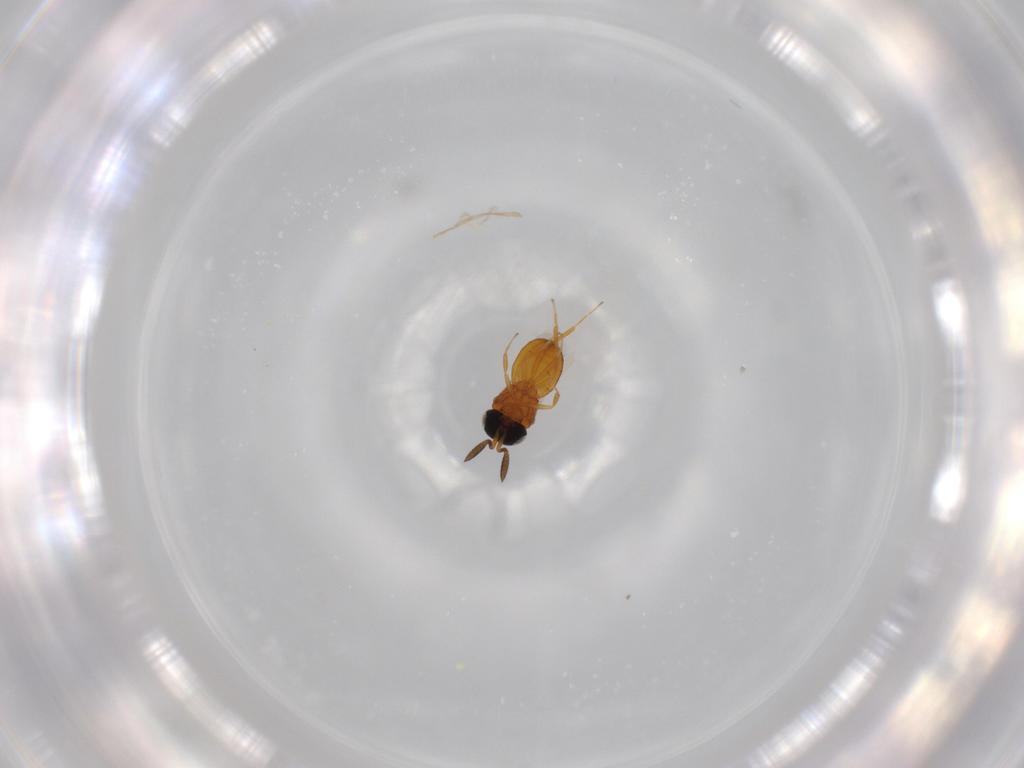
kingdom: Animalia
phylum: Arthropoda
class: Insecta
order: Hymenoptera
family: Scelionidae
